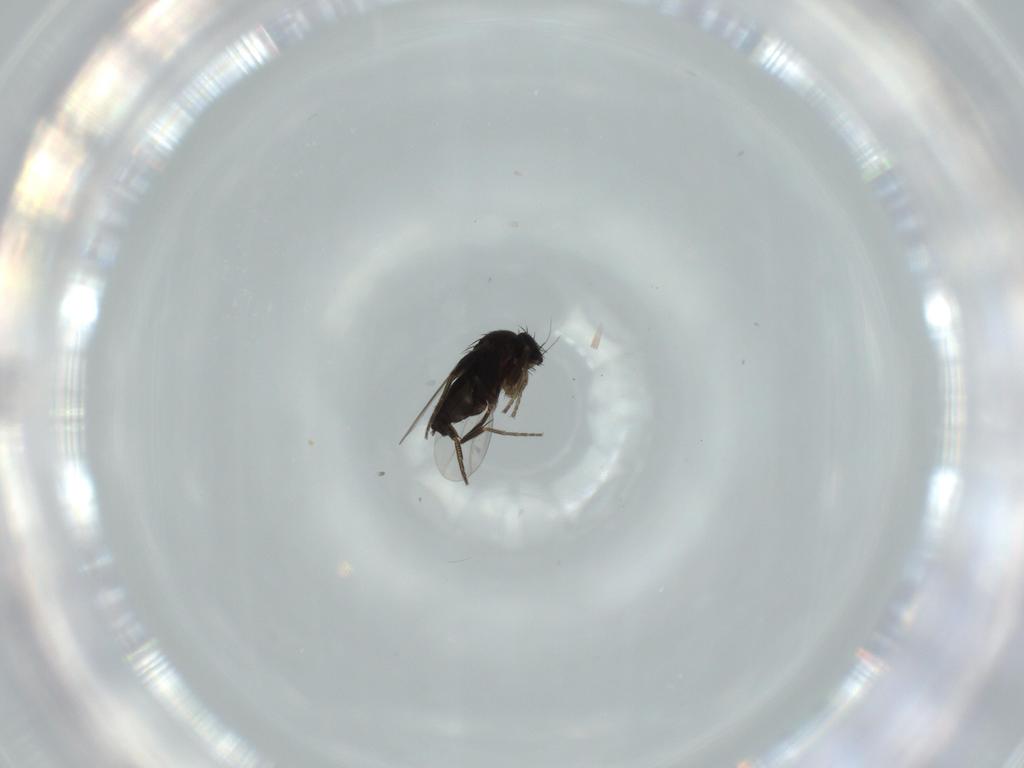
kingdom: Animalia
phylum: Arthropoda
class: Insecta
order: Diptera
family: Phoridae
